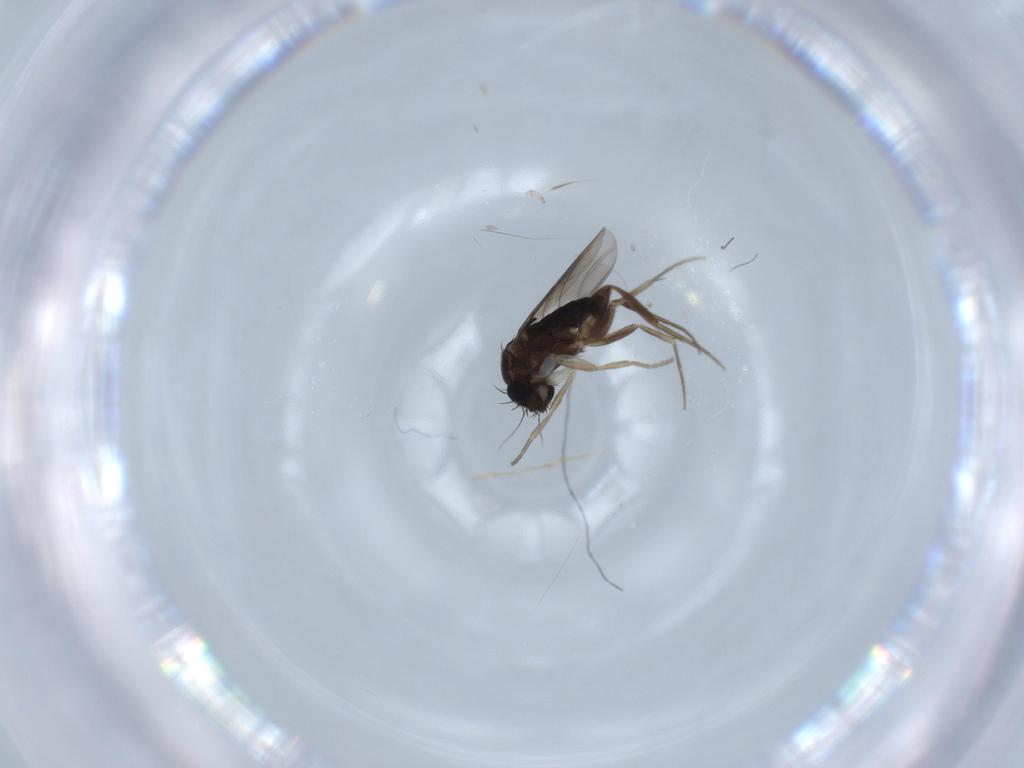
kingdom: Animalia
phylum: Arthropoda
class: Insecta
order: Diptera
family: Phoridae
